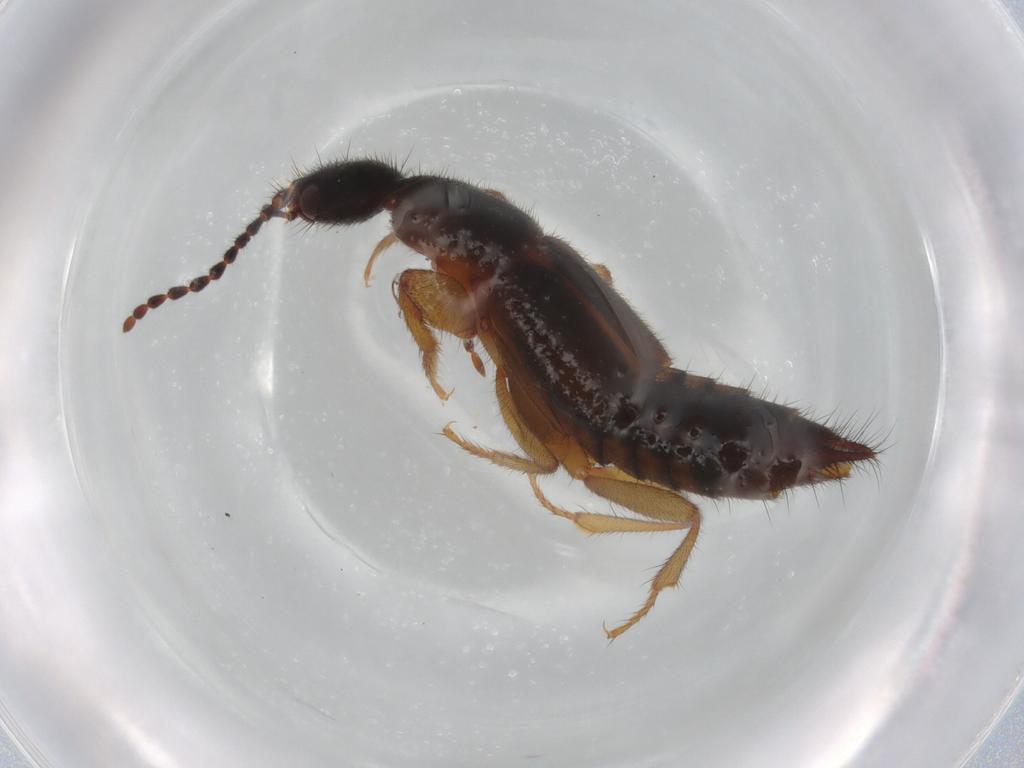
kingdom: Animalia
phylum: Arthropoda
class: Insecta
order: Coleoptera
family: Staphylinidae
